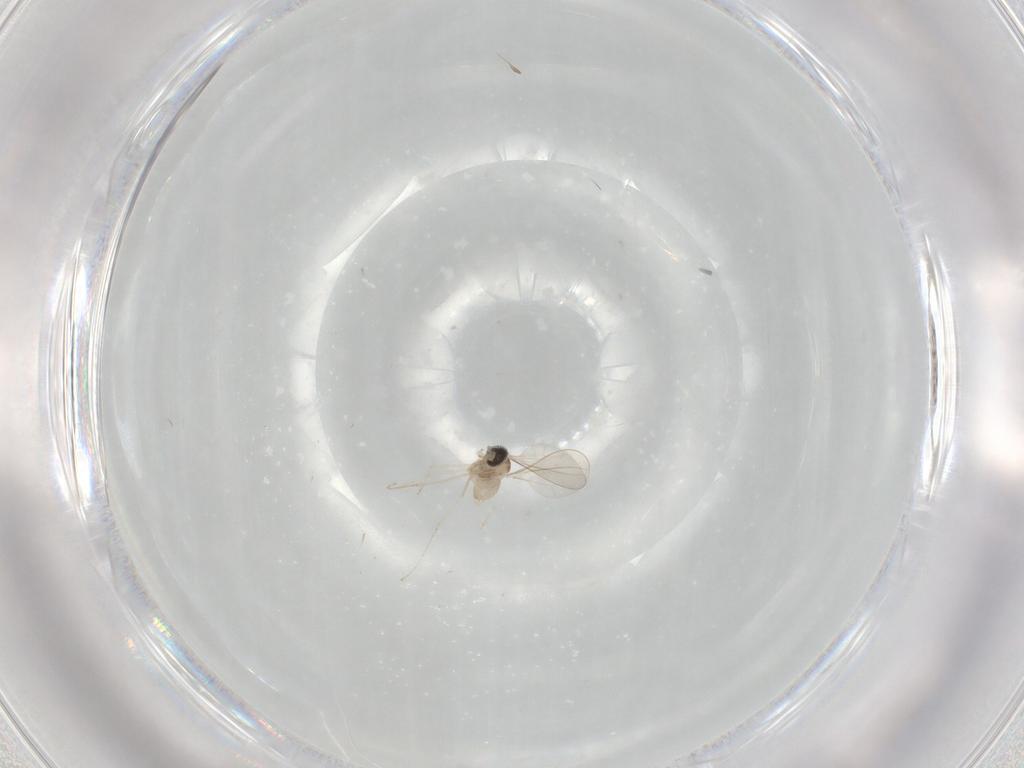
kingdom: Animalia
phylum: Arthropoda
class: Insecta
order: Diptera
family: Cecidomyiidae
